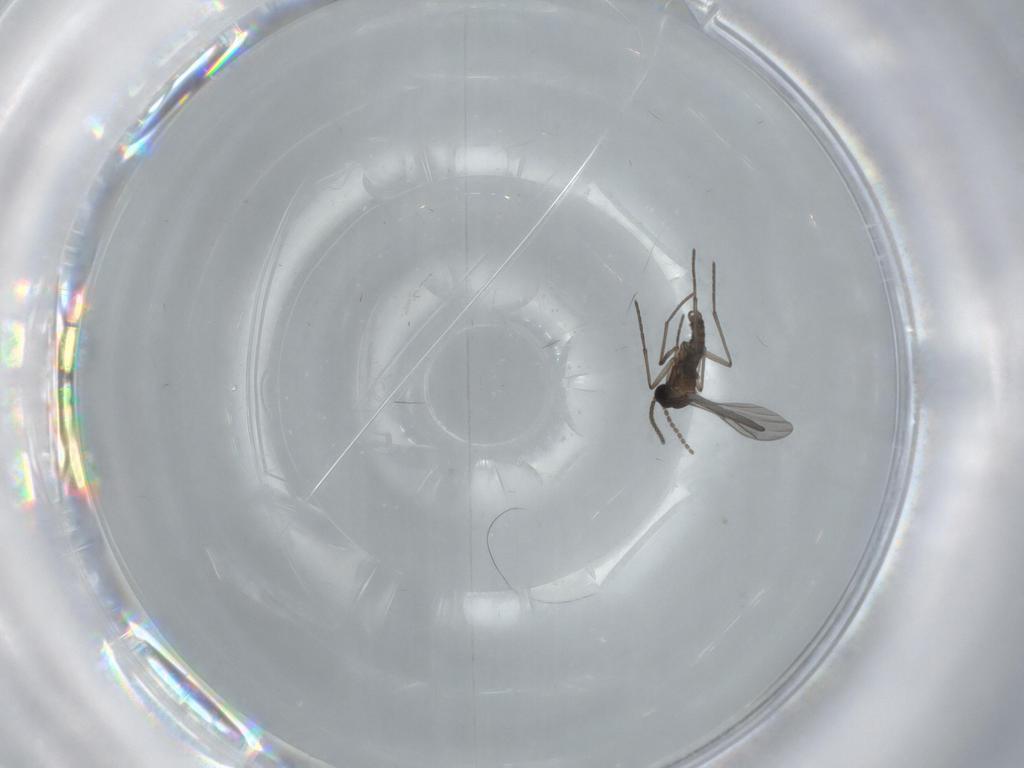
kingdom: Animalia
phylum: Arthropoda
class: Insecta
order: Diptera
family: Sciaridae
